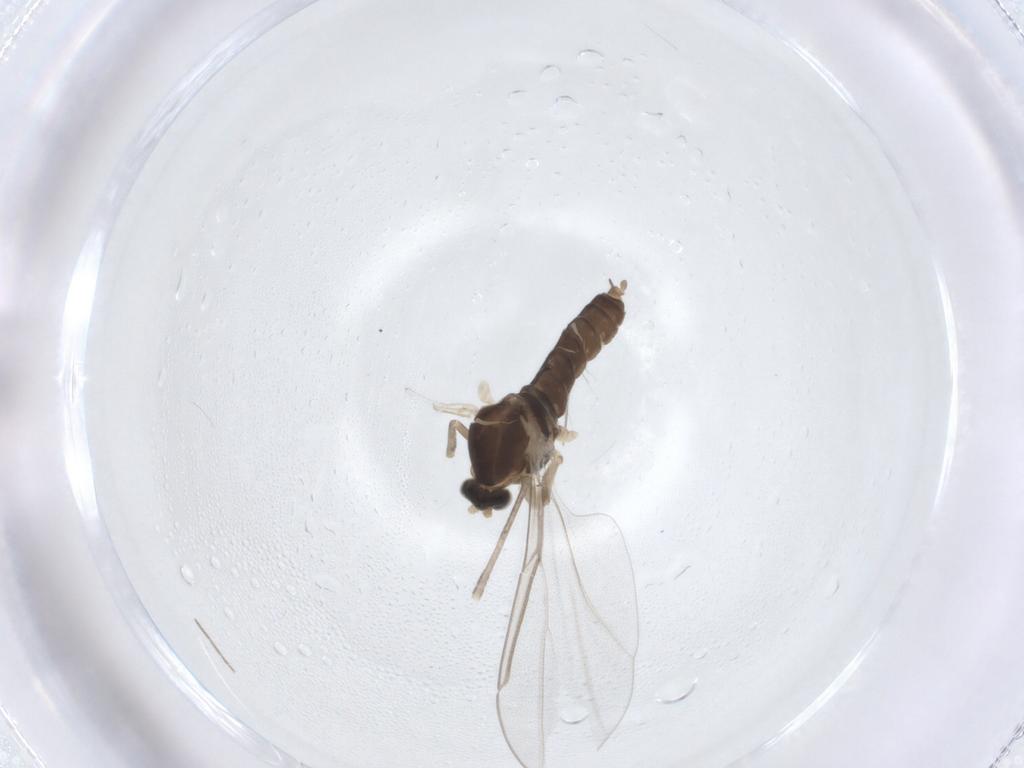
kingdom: Animalia
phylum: Arthropoda
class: Insecta
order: Diptera
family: Cecidomyiidae
